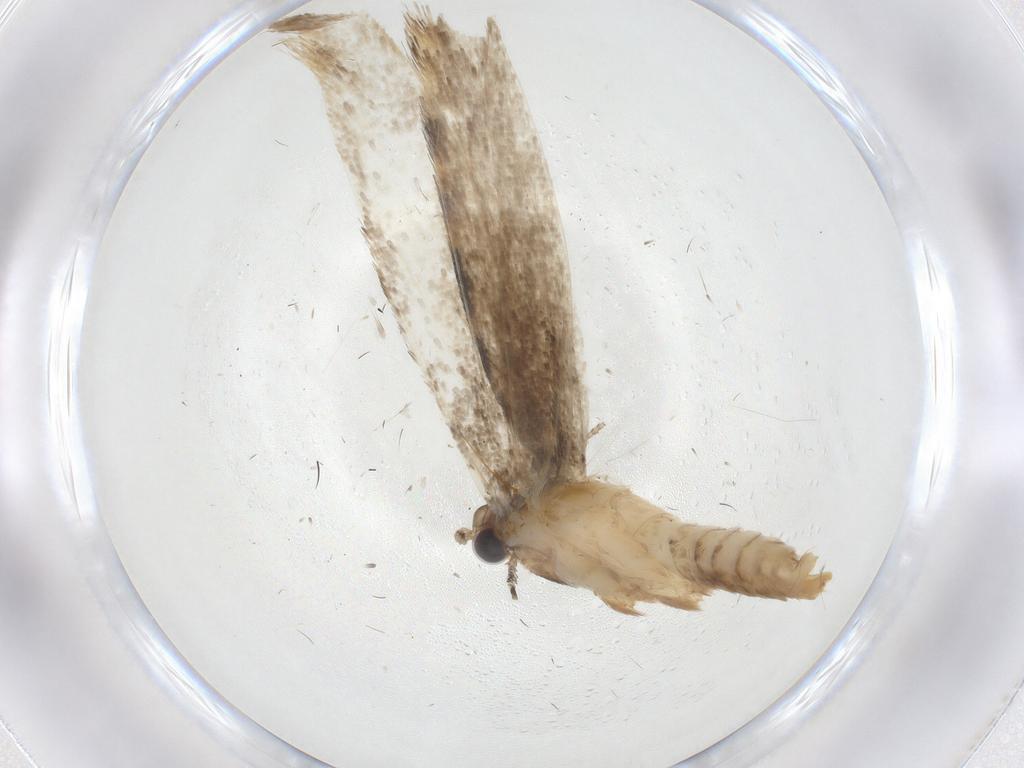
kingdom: Animalia
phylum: Arthropoda
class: Insecta
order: Lepidoptera
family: Tineidae
